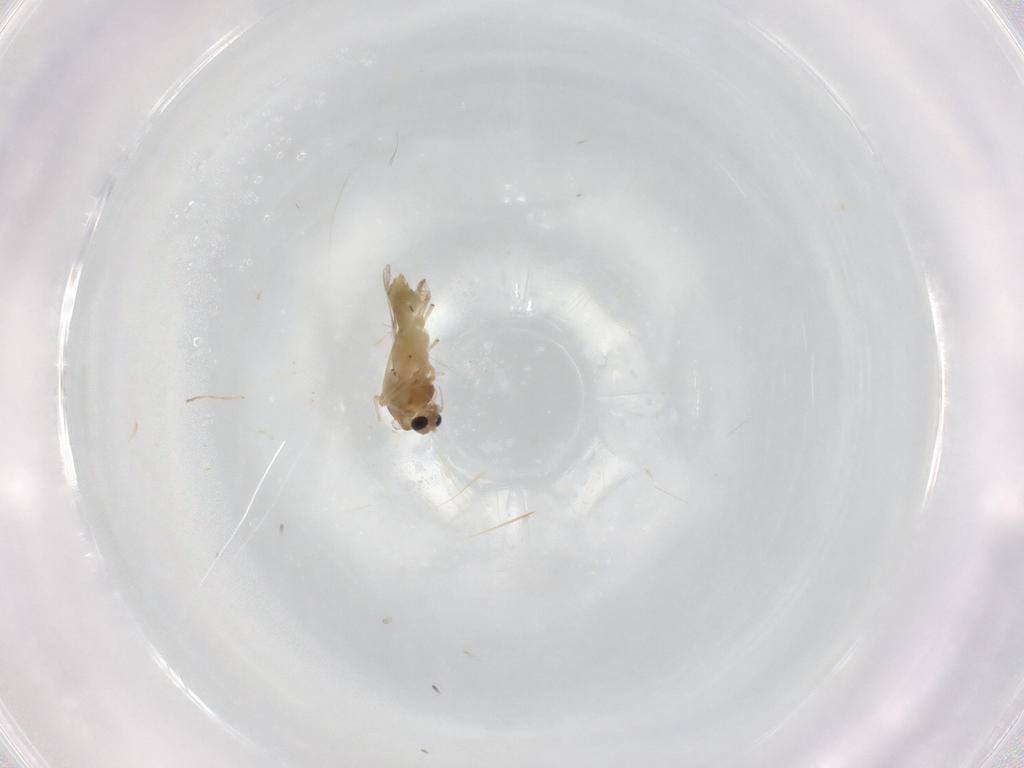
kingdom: Animalia
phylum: Arthropoda
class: Insecta
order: Diptera
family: Chironomidae
